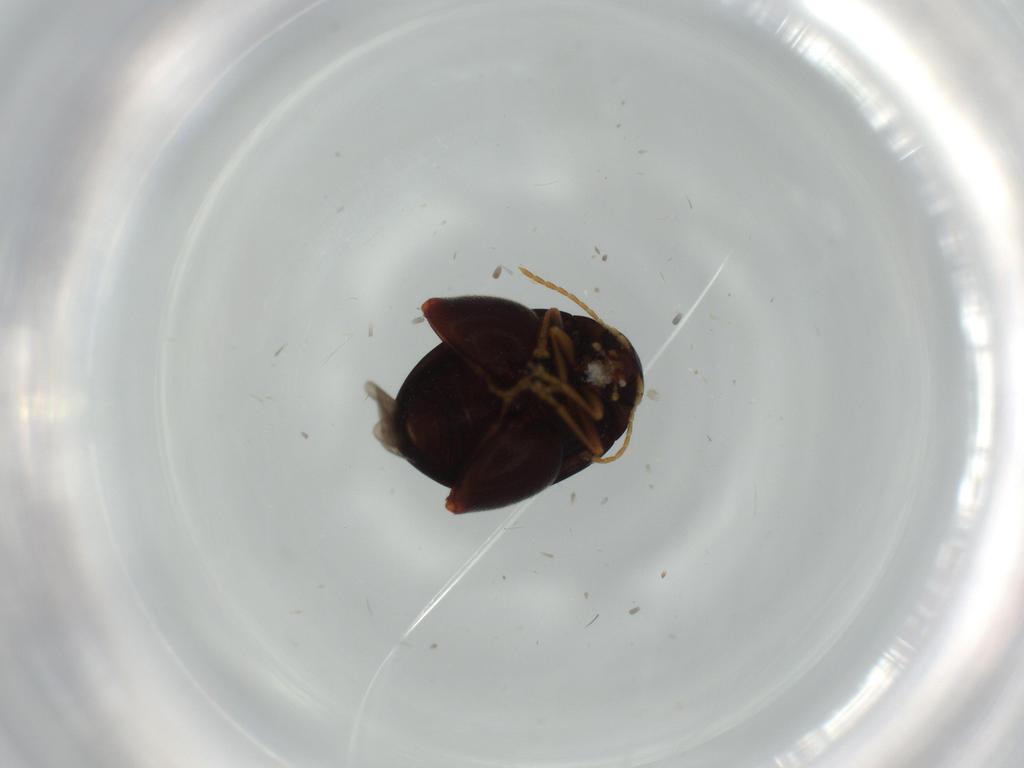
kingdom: Animalia
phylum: Arthropoda
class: Insecta
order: Coleoptera
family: Chrysomelidae
